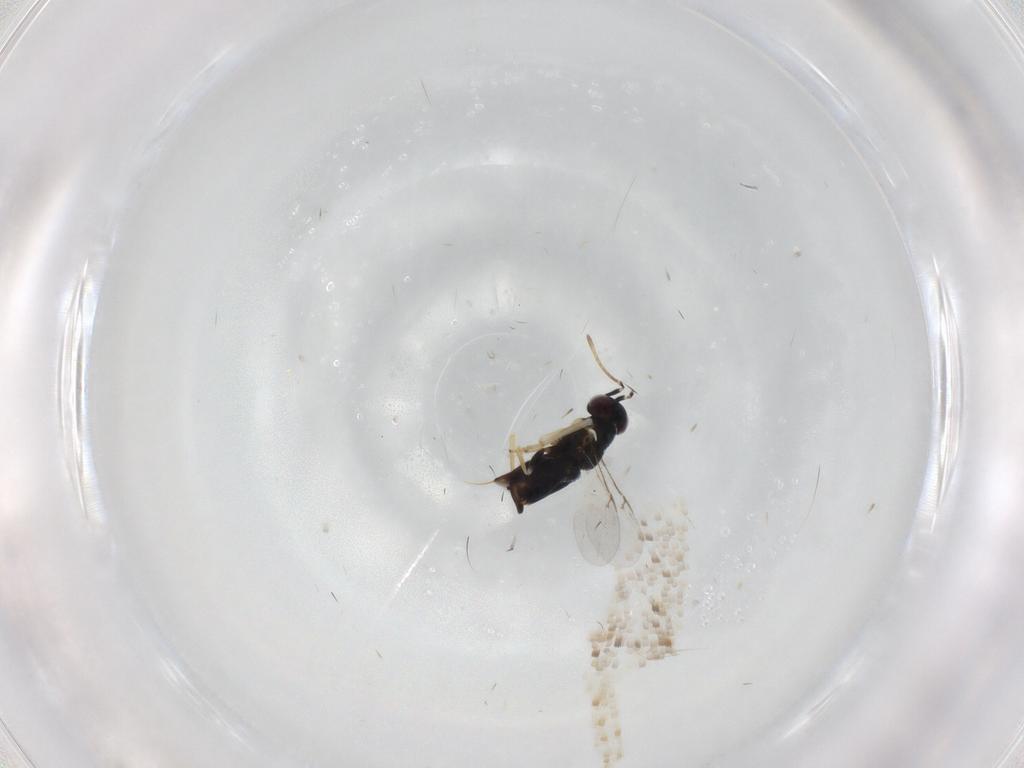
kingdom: Animalia
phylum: Arthropoda
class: Insecta
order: Hymenoptera
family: Encyrtidae
